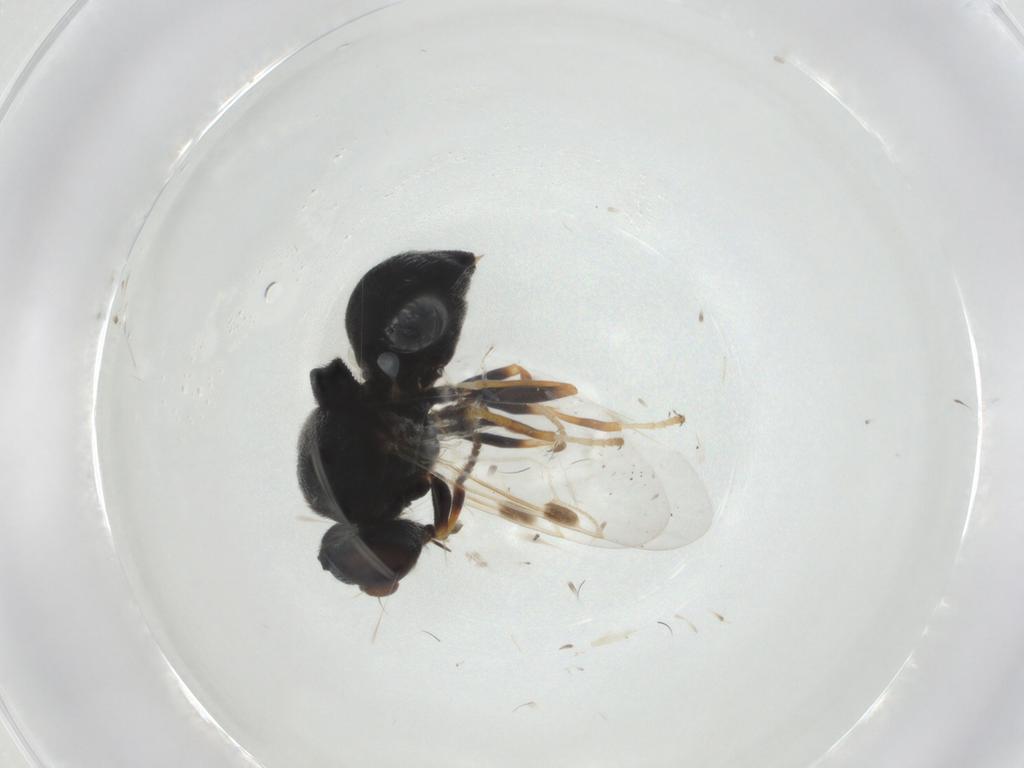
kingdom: Animalia
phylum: Arthropoda
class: Insecta
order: Diptera
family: Stratiomyidae
